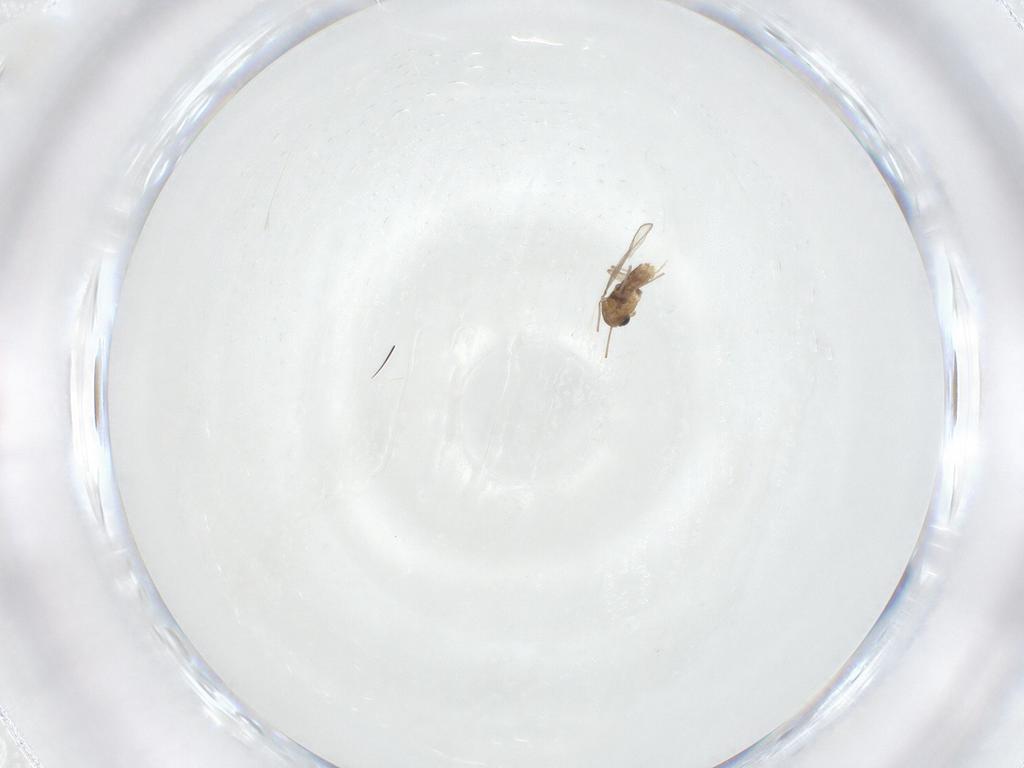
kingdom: Animalia
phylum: Arthropoda
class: Insecta
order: Diptera
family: Chironomidae
